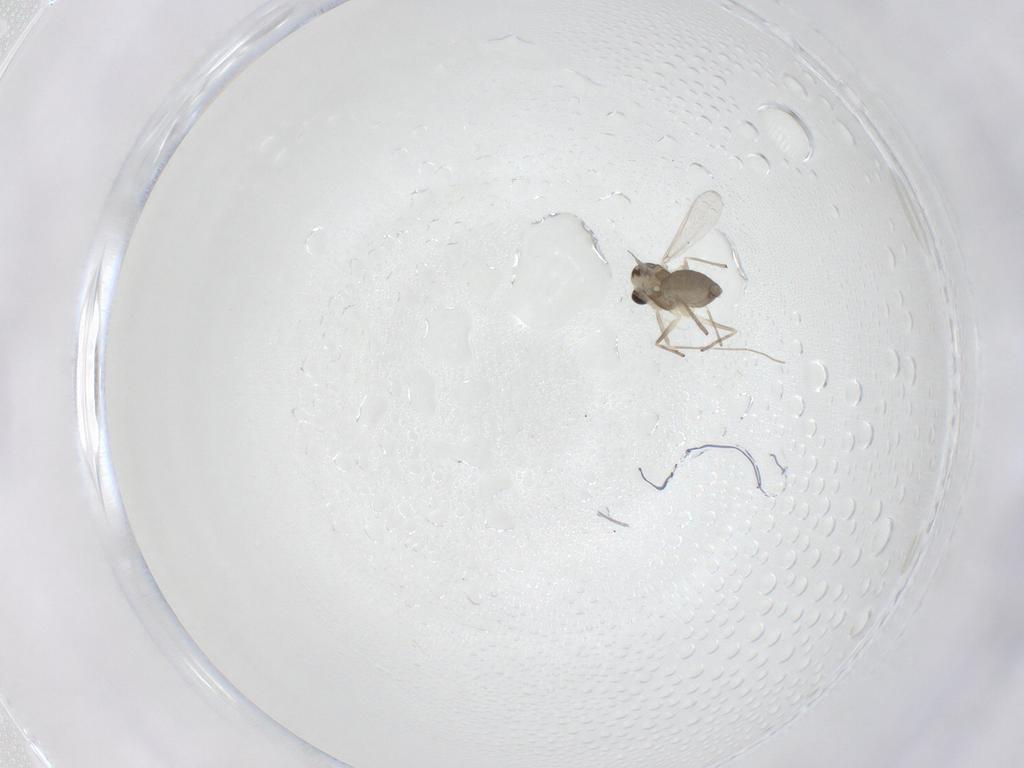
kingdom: Animalia
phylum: Arthropoda
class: Insecta
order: Diptera
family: Chironomidae
